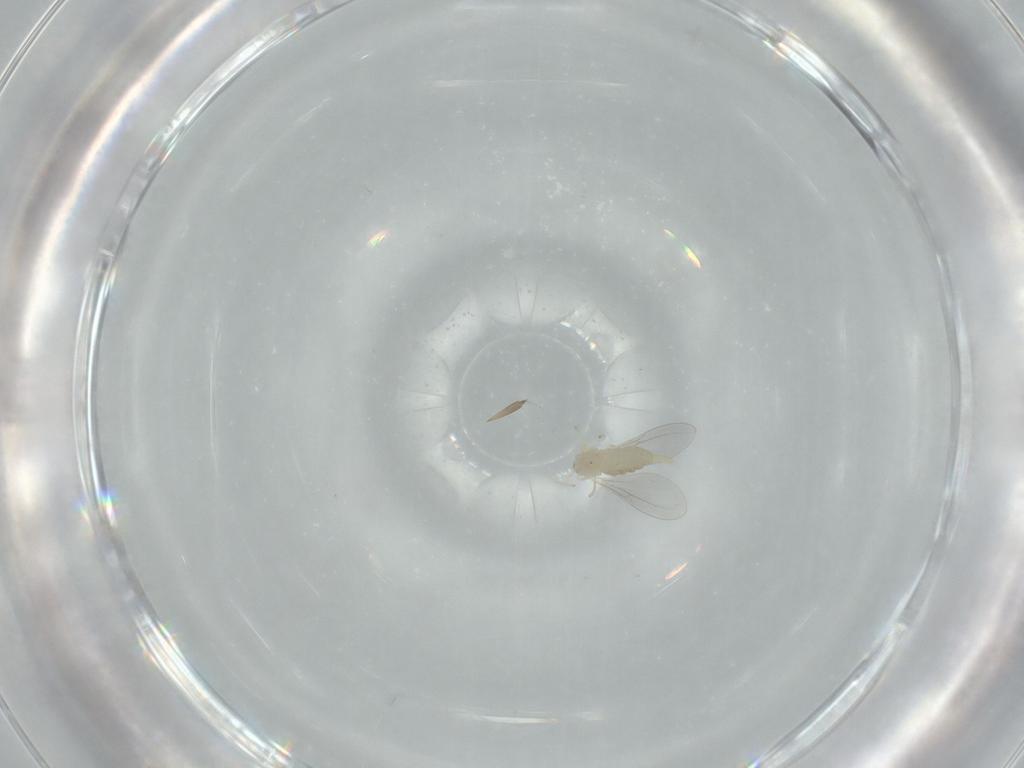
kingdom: Animalia
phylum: Arthropoda
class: Insecta
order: Diptera
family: Cecidomyiidae
